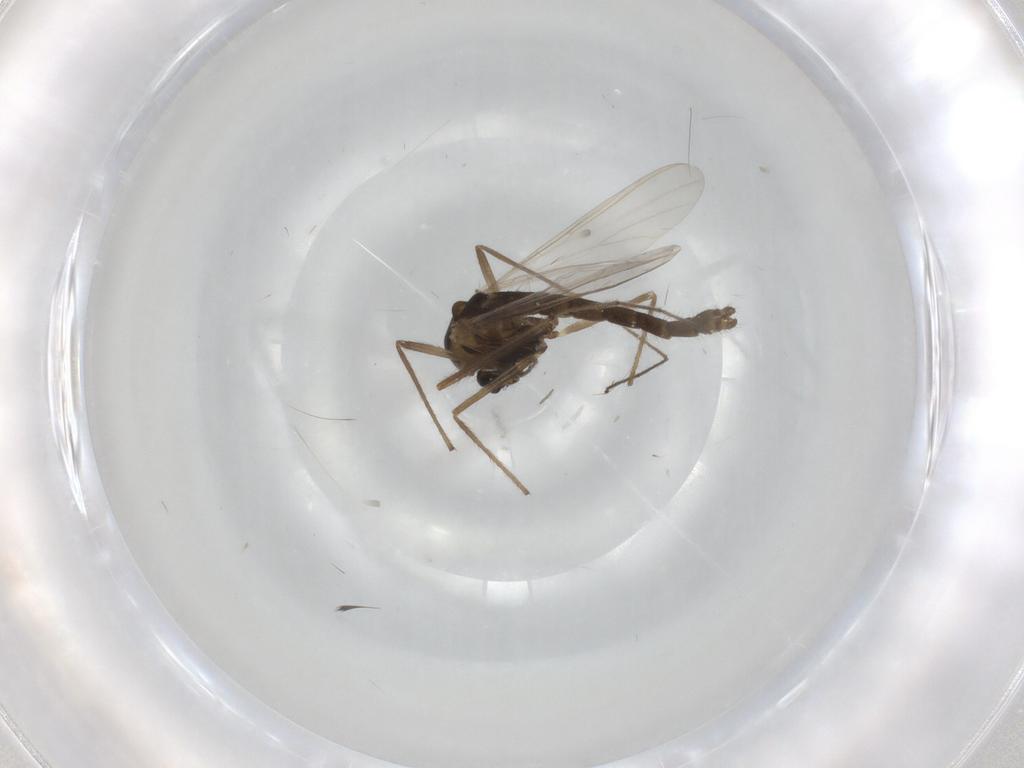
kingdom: Animalia
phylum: Arthropoda
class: Insecta
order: Diptera
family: Chironomidae
